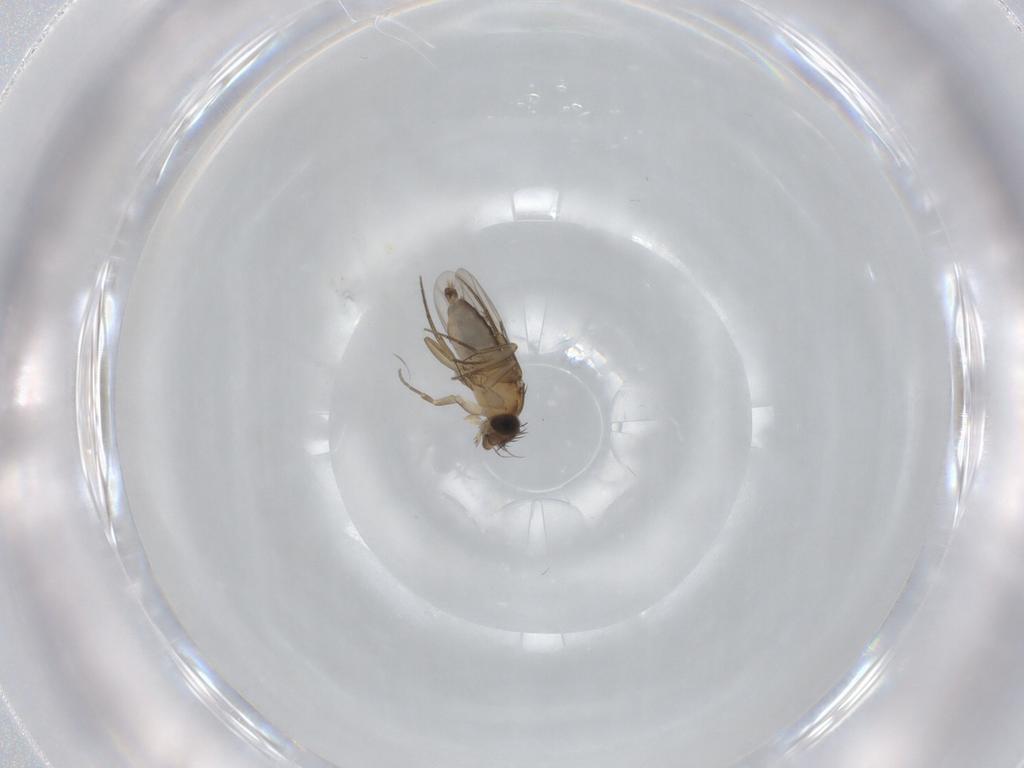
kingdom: Animalia
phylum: Arthropoda
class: Insecta
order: Diptera
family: Phoridae
